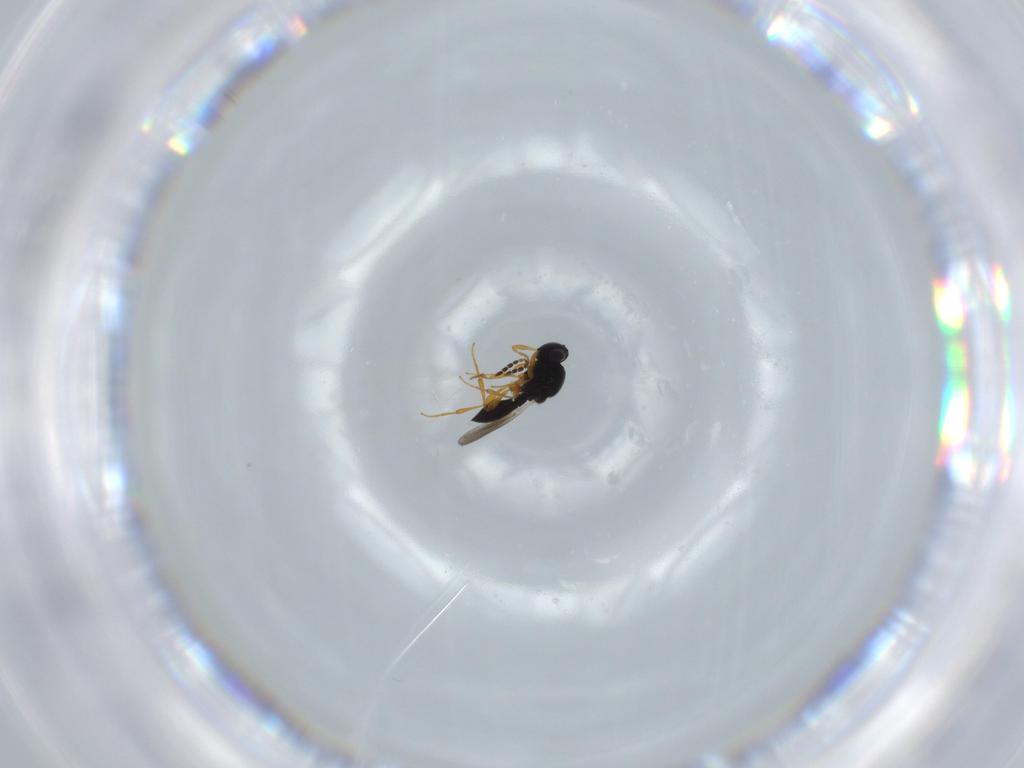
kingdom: Animalia
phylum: Arthropoda
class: Insecta
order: Hymenoptera
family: Platygastridae
